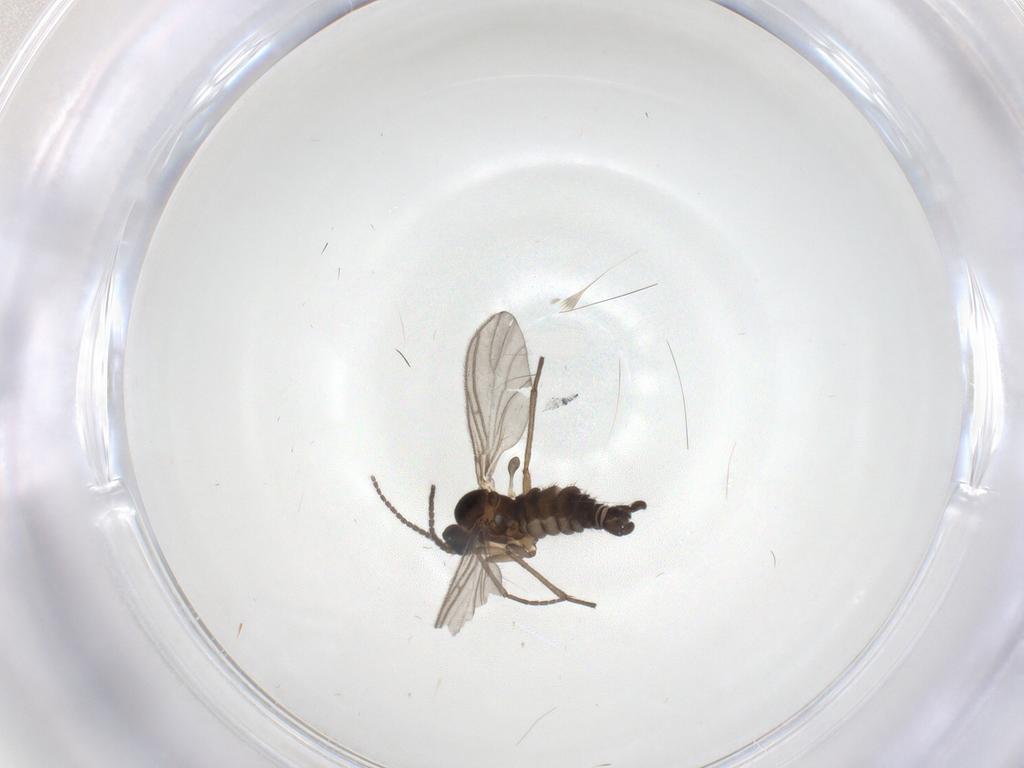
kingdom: Animalia
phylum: Arthropoda
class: Insecta
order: Diptera
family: Sciaridae
